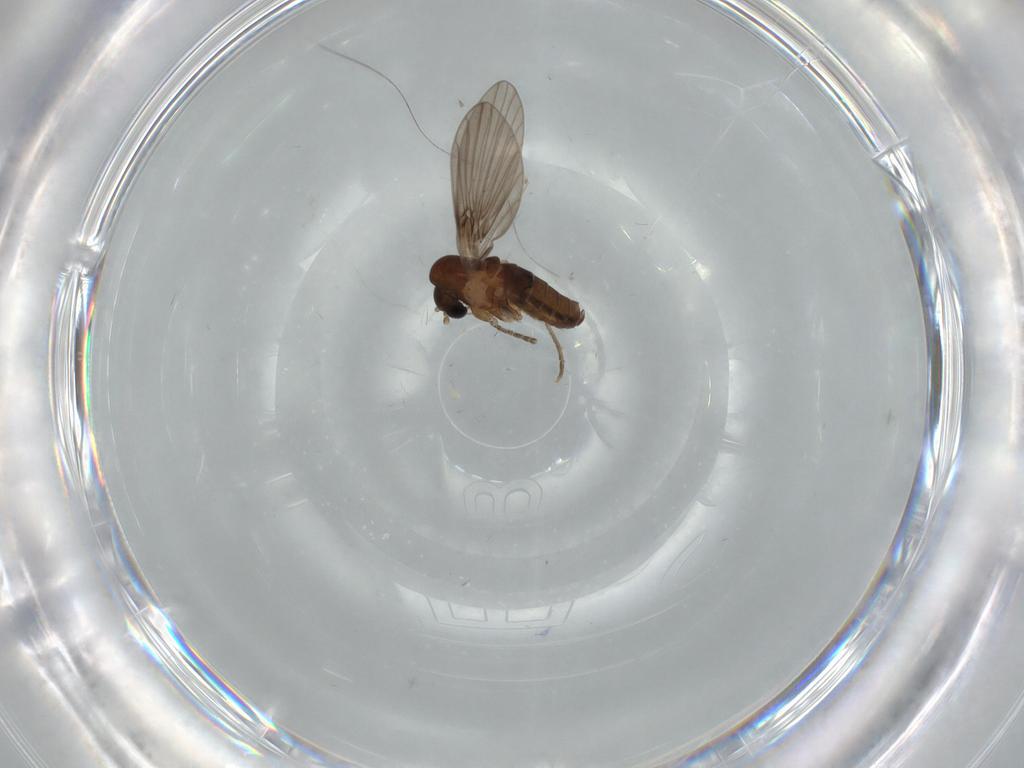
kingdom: Animalia
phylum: Arthropoda
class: Insecta
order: Diptera
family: Psychodidae
